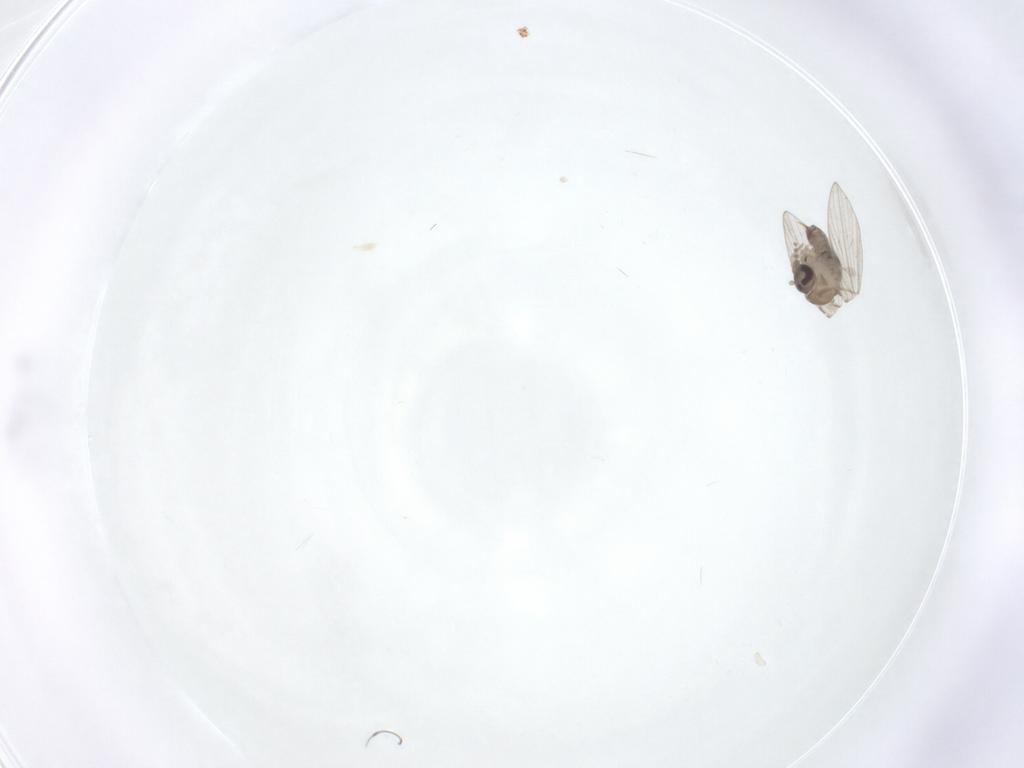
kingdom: Animalia
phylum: Arthropoda
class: Insecta
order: Diptera
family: Psychodidae
